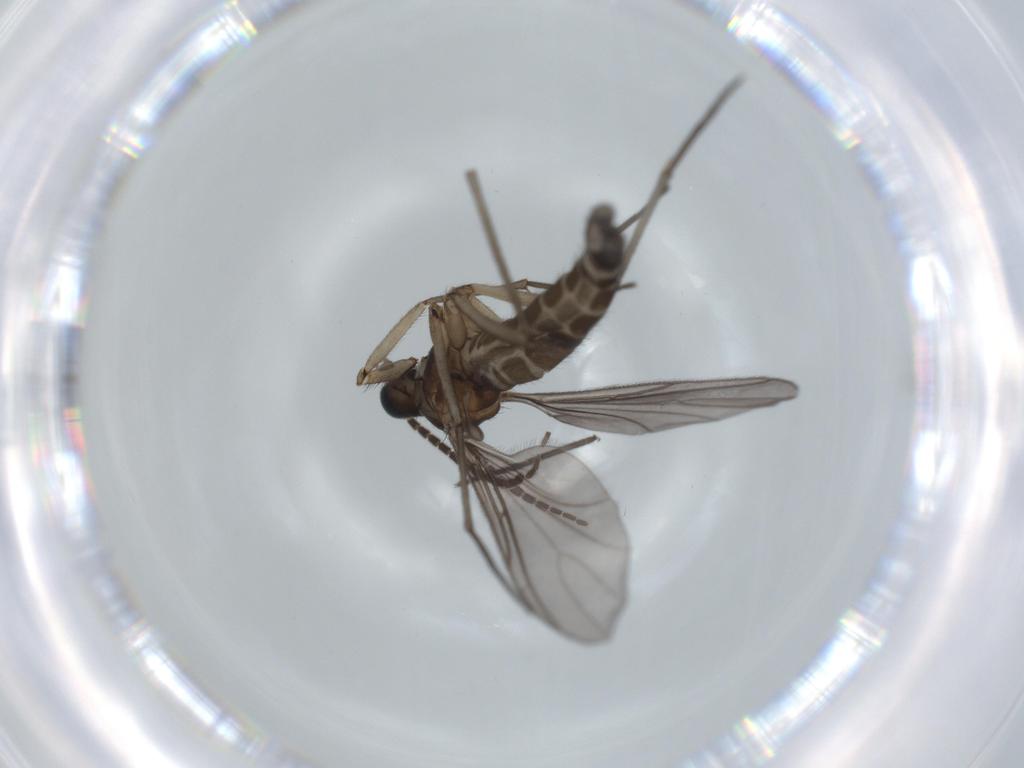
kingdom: Animalia
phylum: Arthropoda
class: Insecta
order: Diptera
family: Sciaridae
